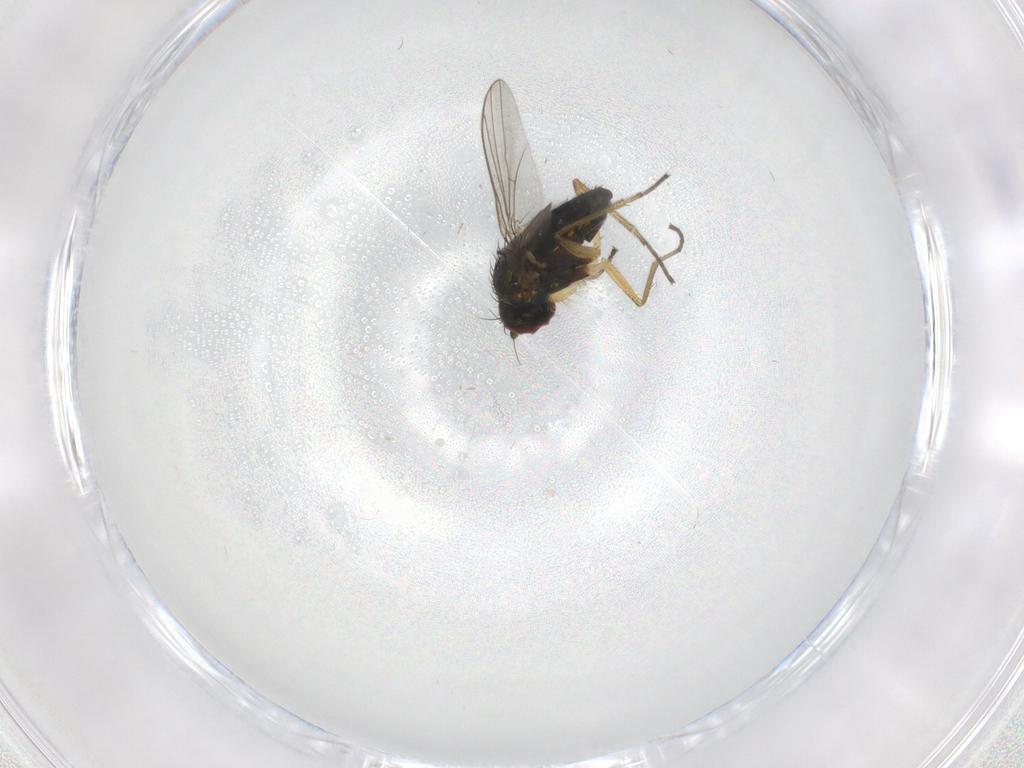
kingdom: Animalia
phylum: Arthropoda
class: Insecta
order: Diptera
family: Dolichopodidae
